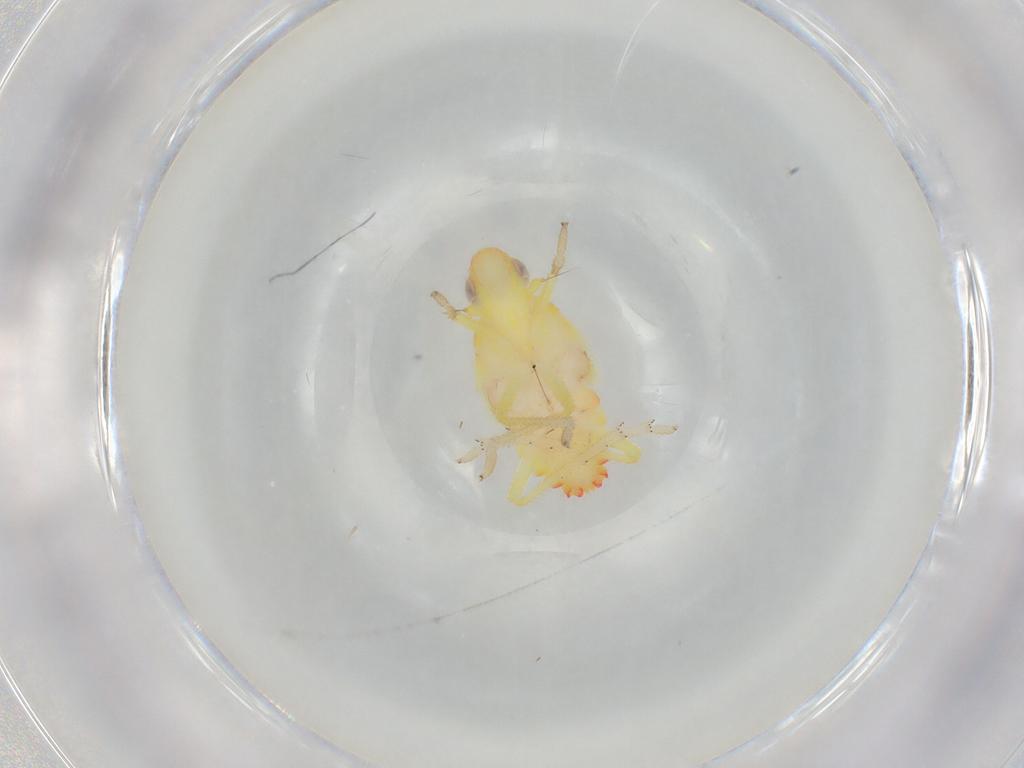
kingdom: Animalia
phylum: Arthropoda
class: Insecta
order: Hemiptera
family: Tropiduchidae
